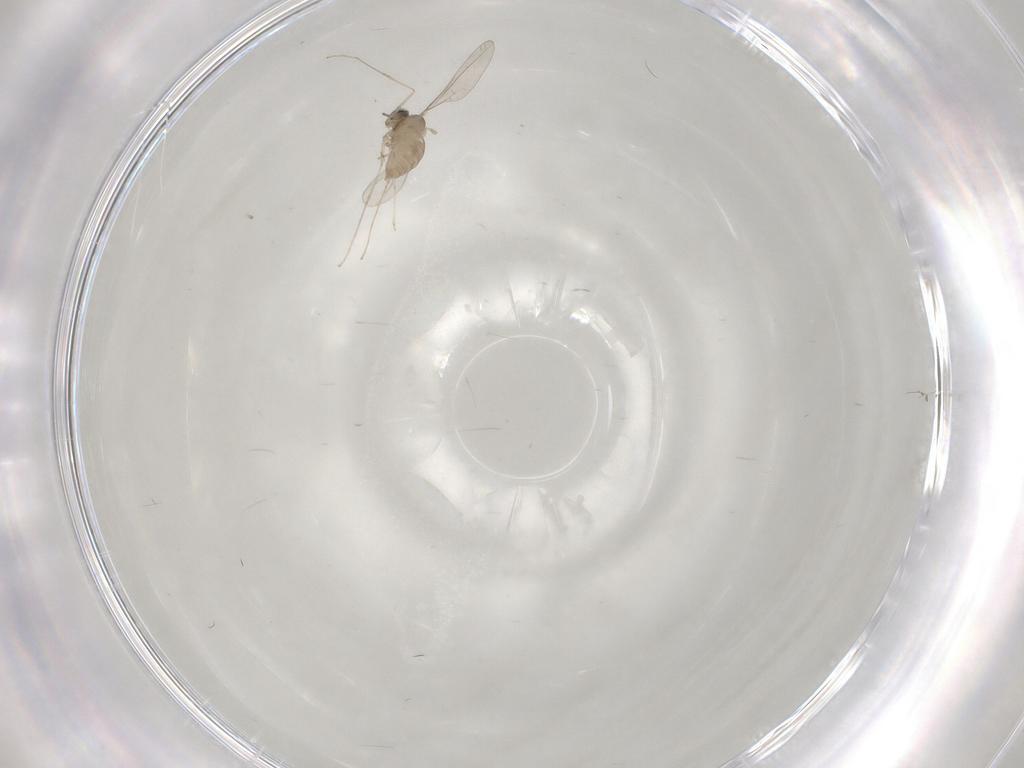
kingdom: Animalia
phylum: Arthropoda
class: Insecta
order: Diptera
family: Cecidomyiidae
